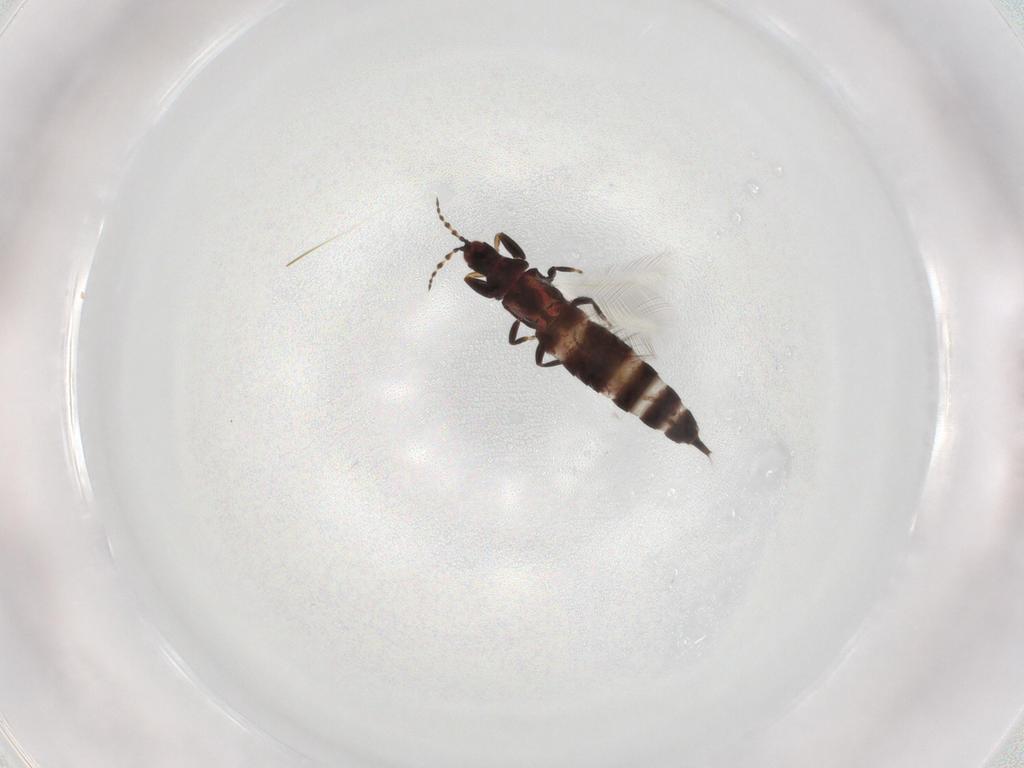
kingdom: Animalia
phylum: Arthropoda
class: Insecta
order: Thysanoptera
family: Phlaeothripidae
